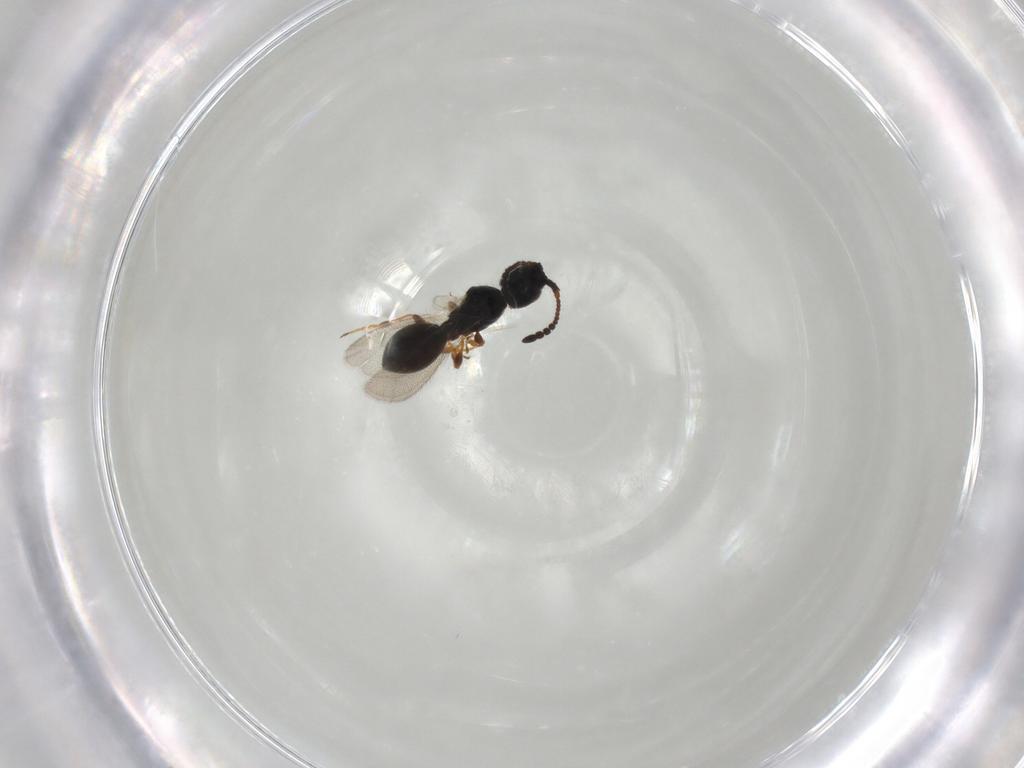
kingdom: Animalia
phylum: Arthropoda
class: Insecta
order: Hymenoptera
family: Diapriidae
